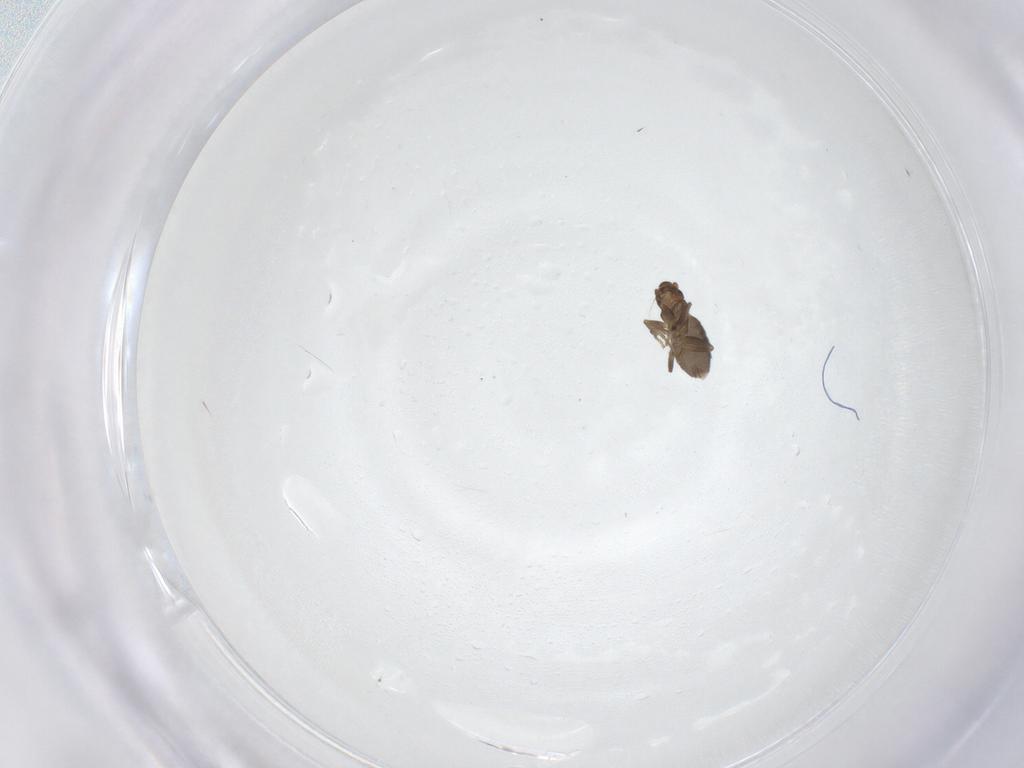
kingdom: Animalia
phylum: Arthropoda
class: Insecta
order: Diptera
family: Phoridae
